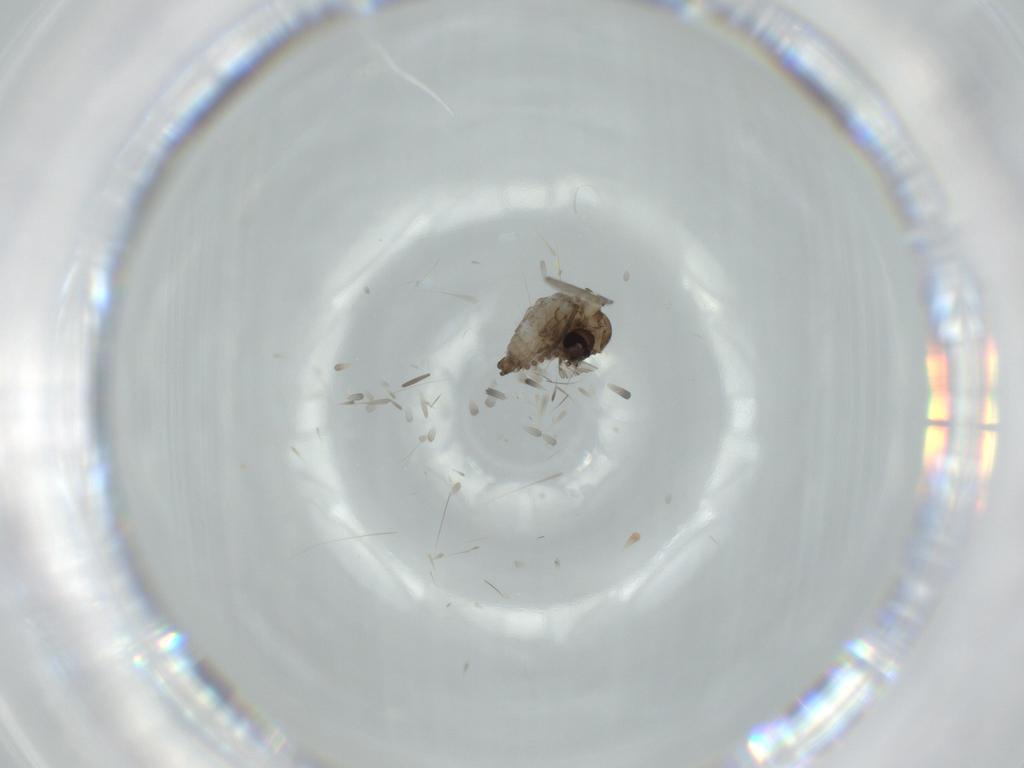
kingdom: Animalia
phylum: Arthropoda
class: Insecta
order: Diptera
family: Psychodidae
